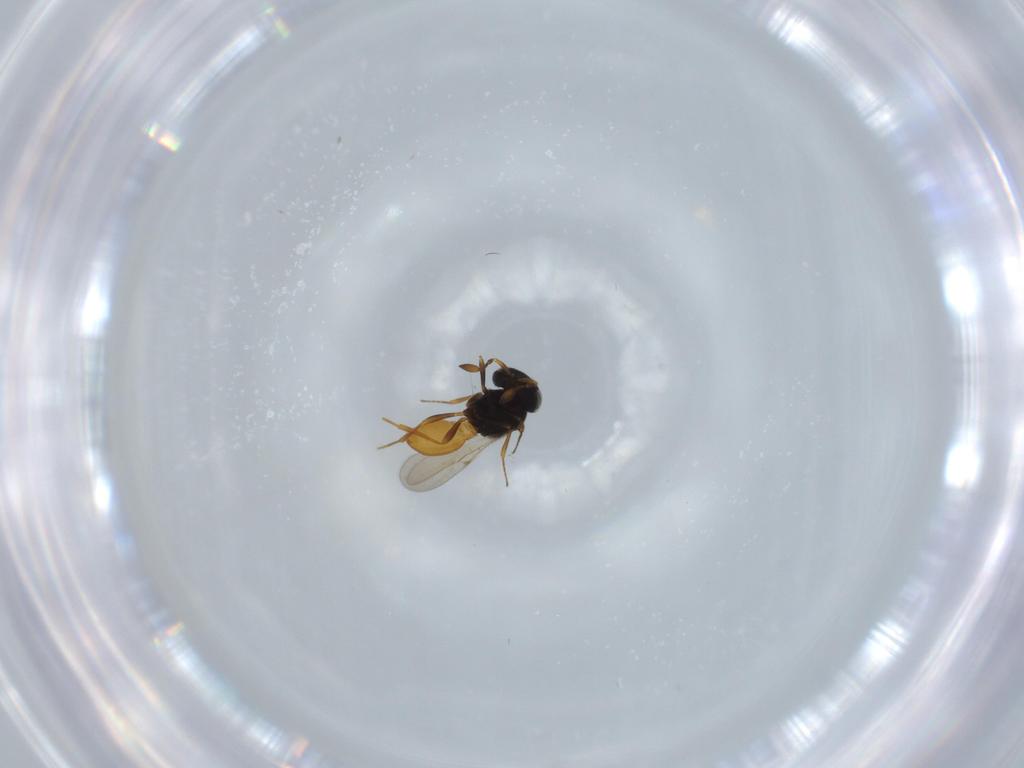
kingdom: Animalia
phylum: Arthropoda
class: Insecta
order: Hymenoptera
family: Scelionidae
